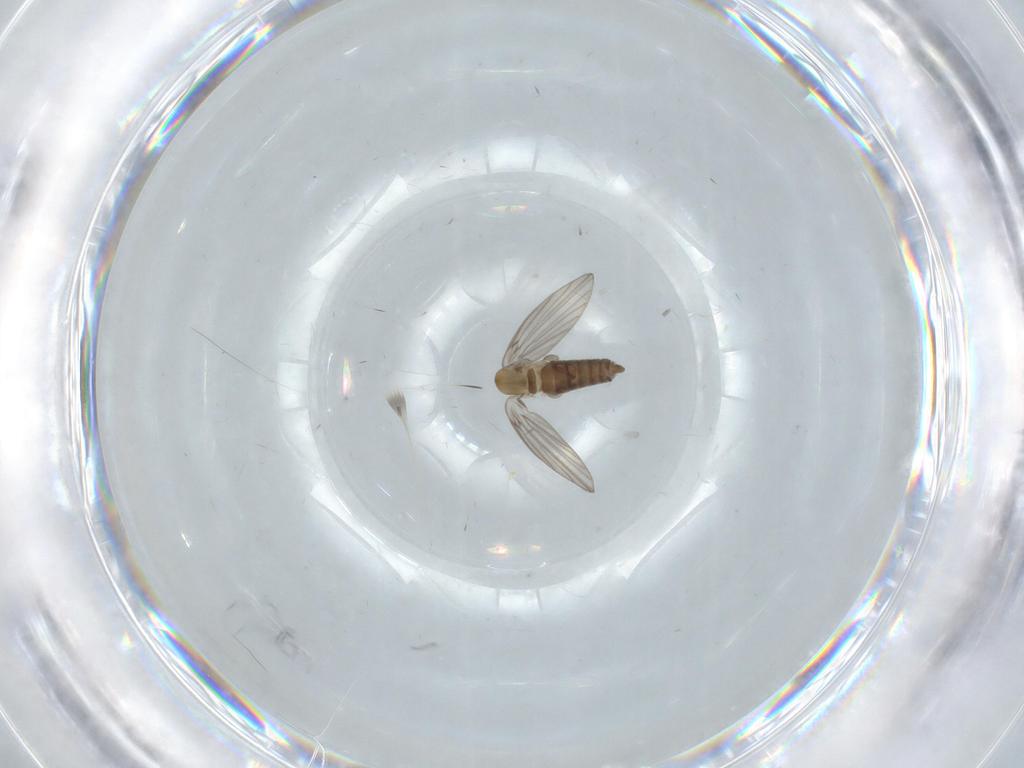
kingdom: Animalia
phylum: Arthropoda
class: Insecta
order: Diptera
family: Psychodidae
